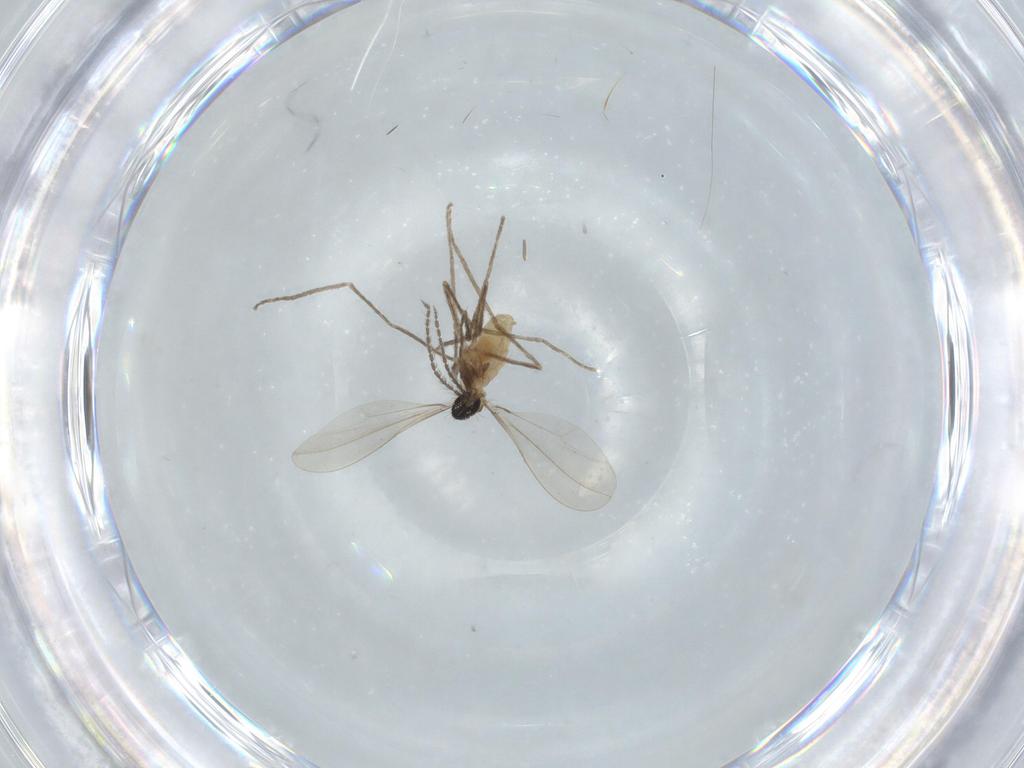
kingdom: Animalia
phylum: Arthropoda
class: Insecta
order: Diptera
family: Cecidomyiidae
